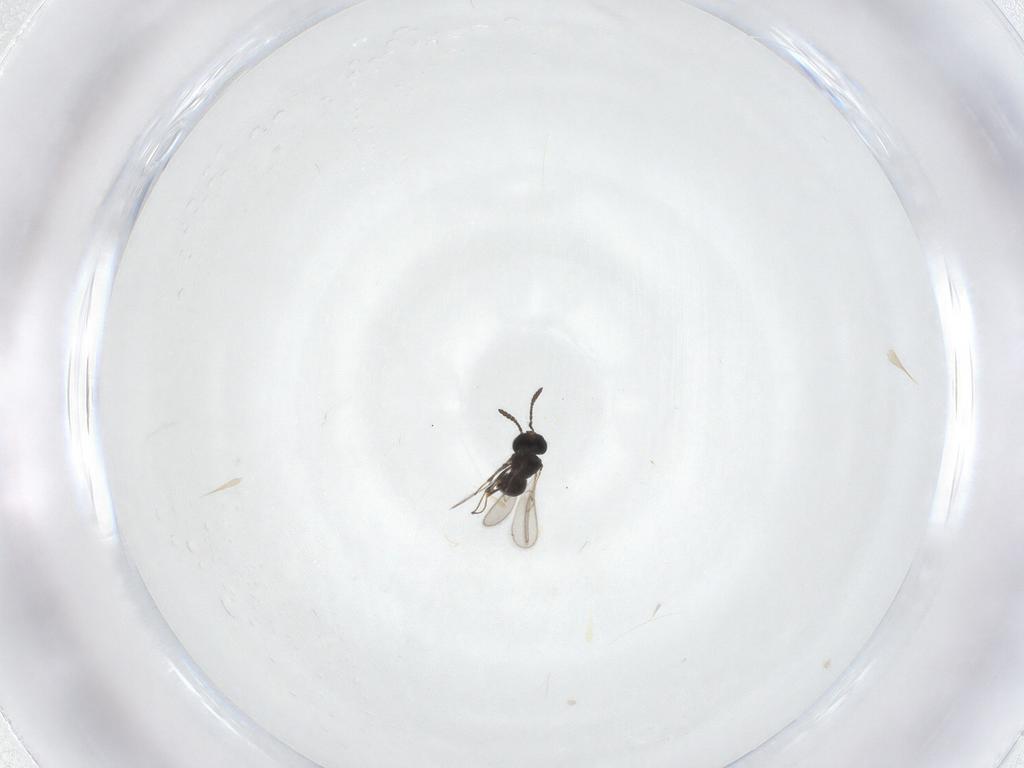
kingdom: Animalia
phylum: Arthropoda
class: Insecta
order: Hymenoptera
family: Scelionidae
